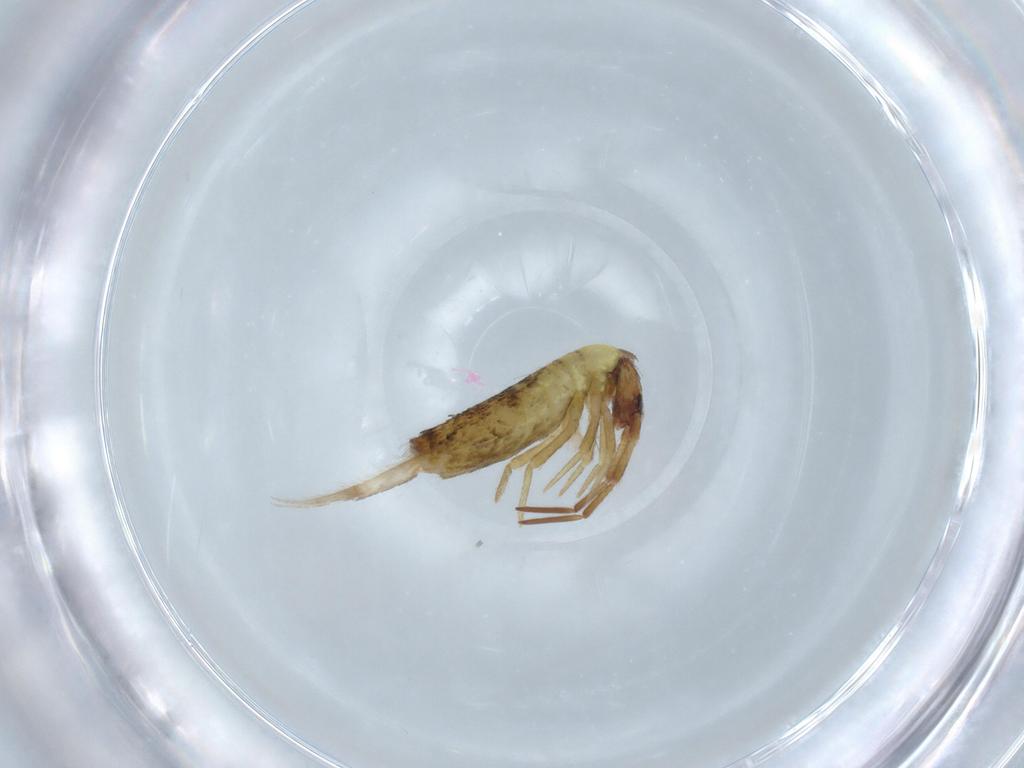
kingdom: Animalia
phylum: Arthropoda
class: Collembola
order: Entomobryomorpha
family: Entomobryidae
